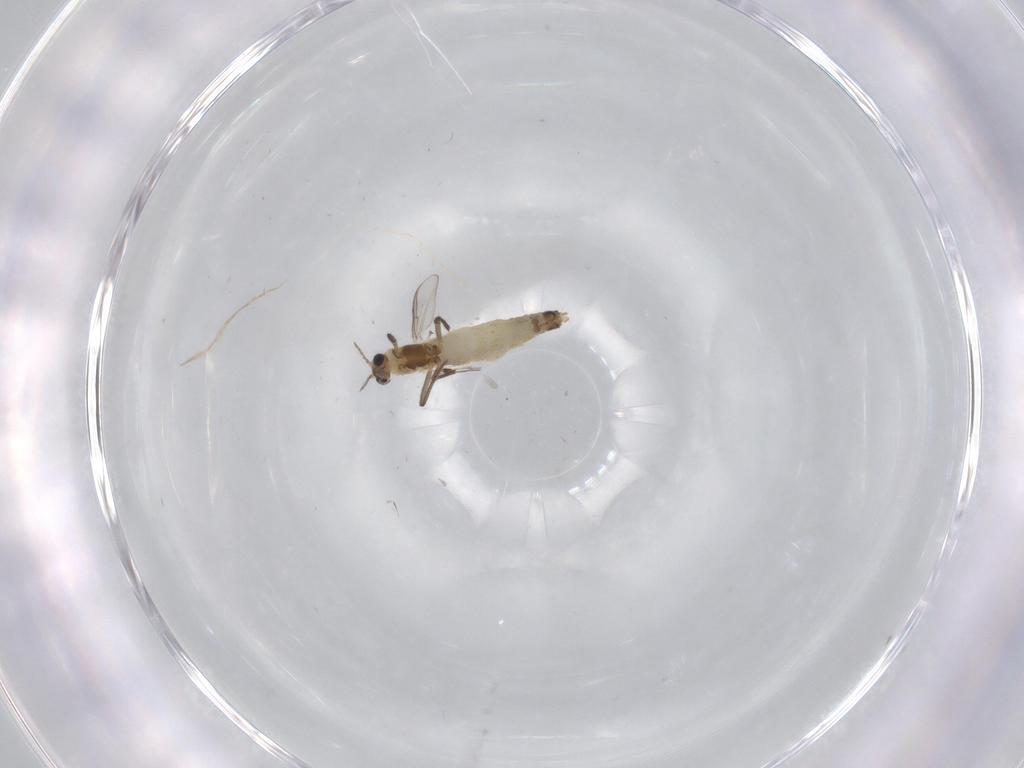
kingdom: Animalia
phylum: Arthropoda
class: Insecta
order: Diptera
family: Chironomidae
